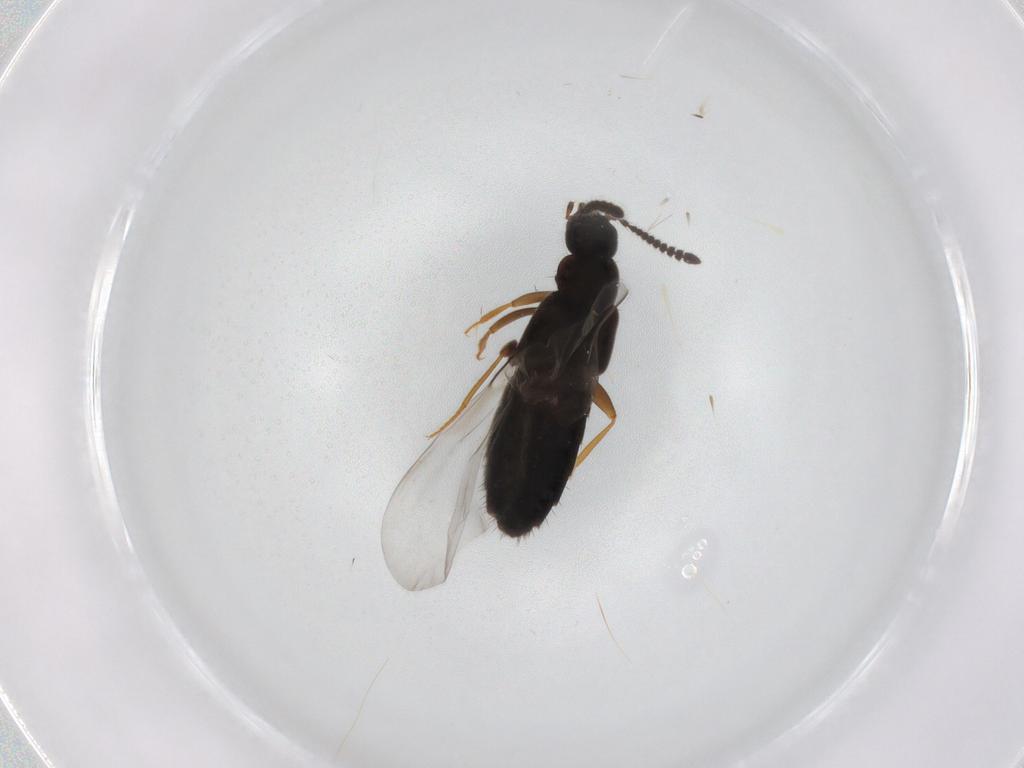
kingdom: Animalia
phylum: Arthropoda
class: Insecta
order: Coleoptera
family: Staphylinidae
